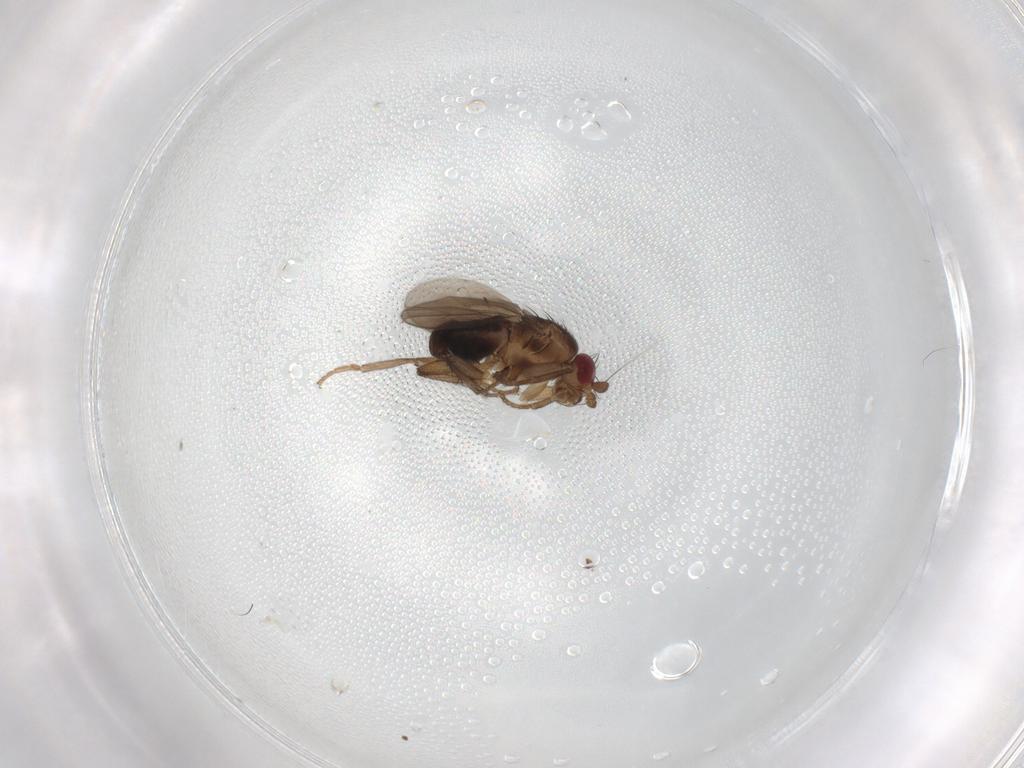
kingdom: Animalia
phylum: Arthropoda
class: Insecta
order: Diptera
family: Sphaeroceridae
